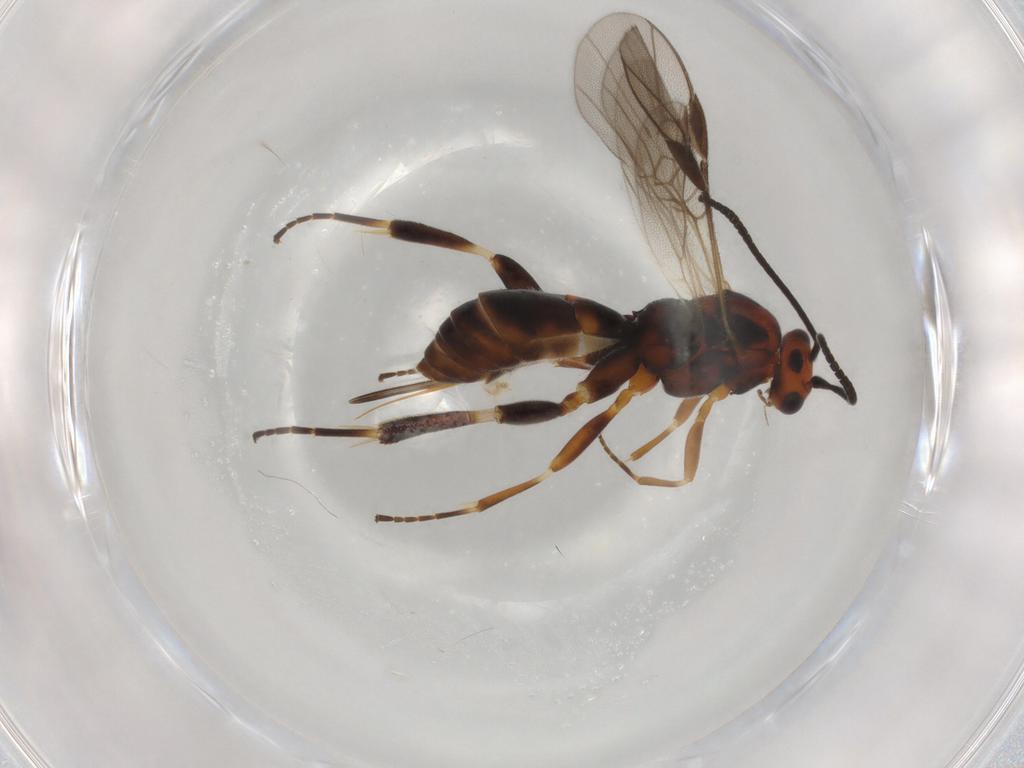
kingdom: Animalia
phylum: Arthropoda
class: Insecta
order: Hymenoptera
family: Braconidae
